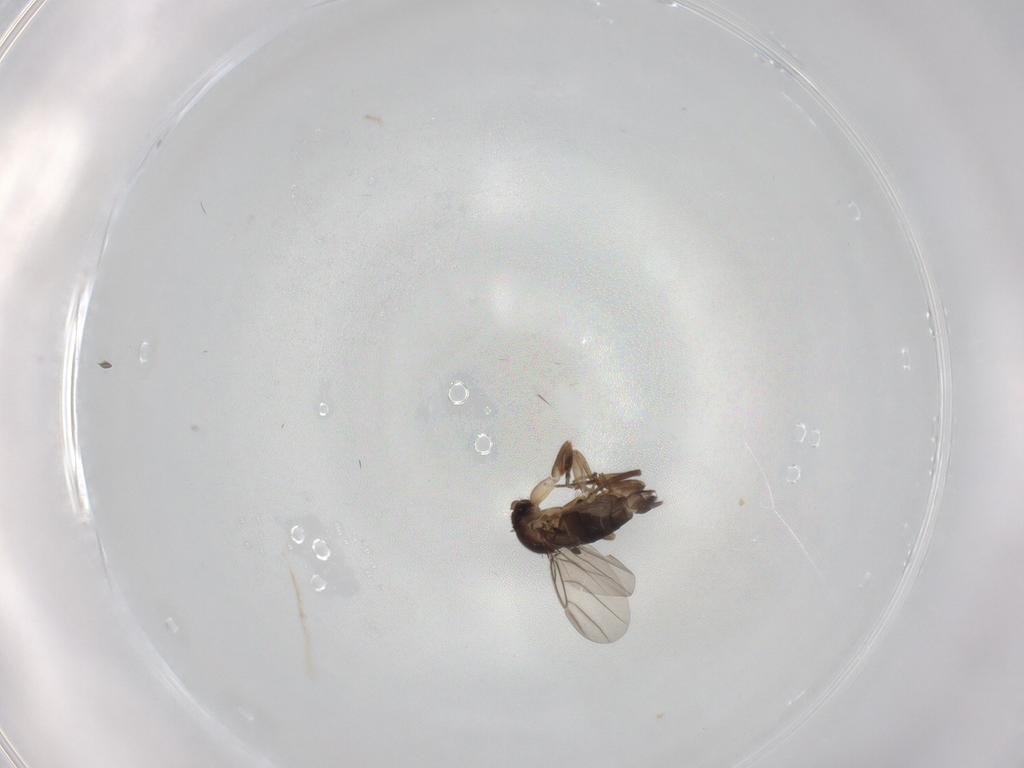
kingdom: Animalia
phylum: Arthropoda
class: Insecta
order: Diptera
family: Phoridae
